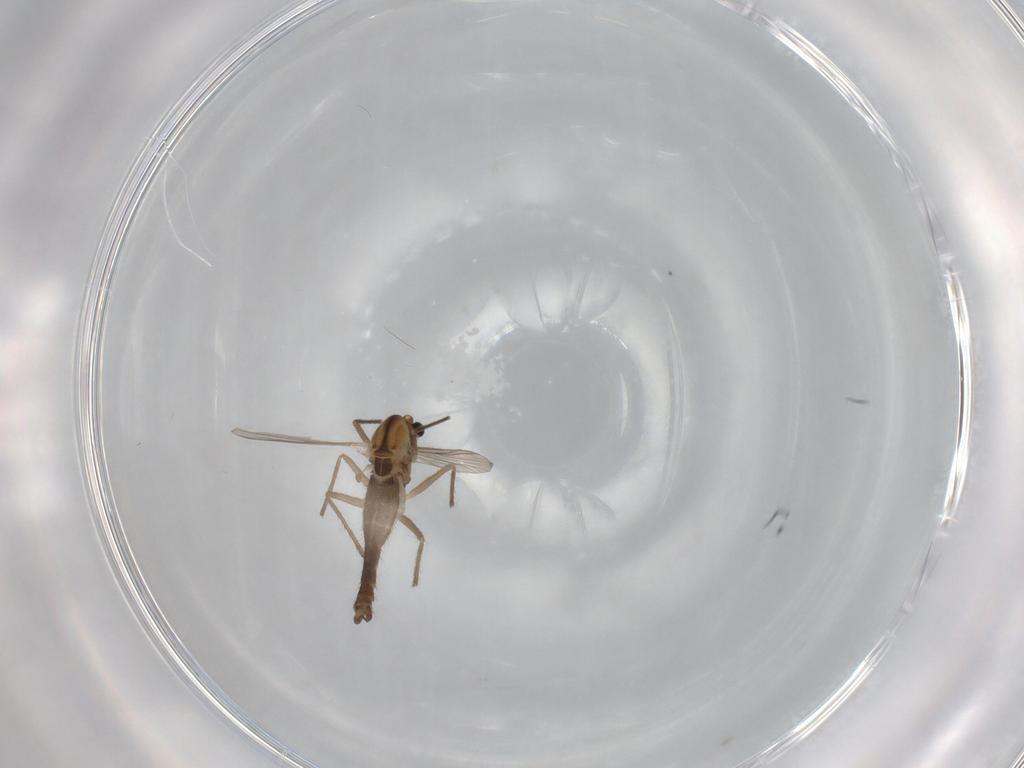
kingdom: Animalia
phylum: Arthropoda
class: Insecta
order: Diptera
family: Chironomidae
